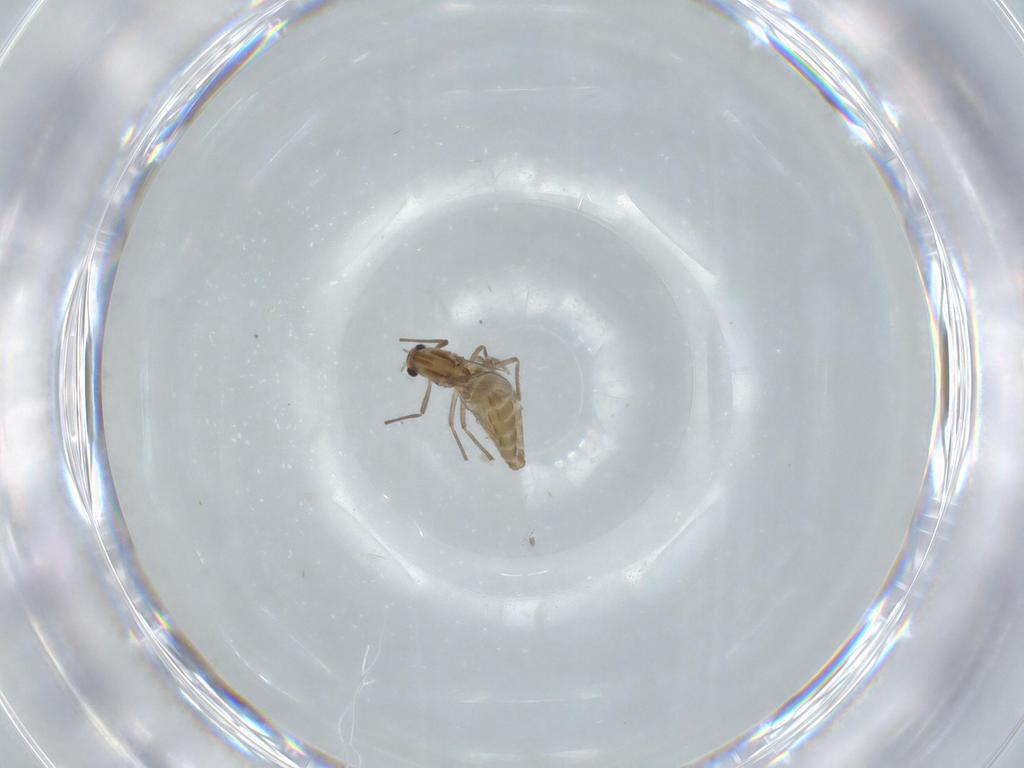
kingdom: Animalia
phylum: Arthropoda
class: Insecta
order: Diptera
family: Chironomidae
